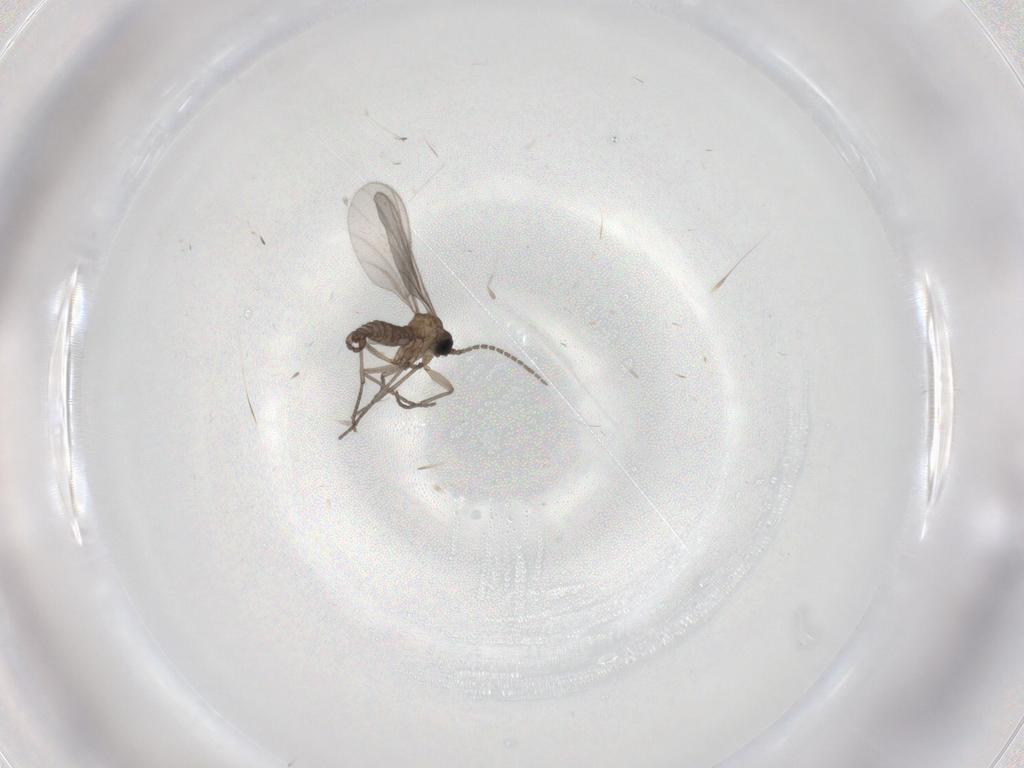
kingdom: Animalia
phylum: Arthropoda
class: Insecta
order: Diptera
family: Sciaridae
